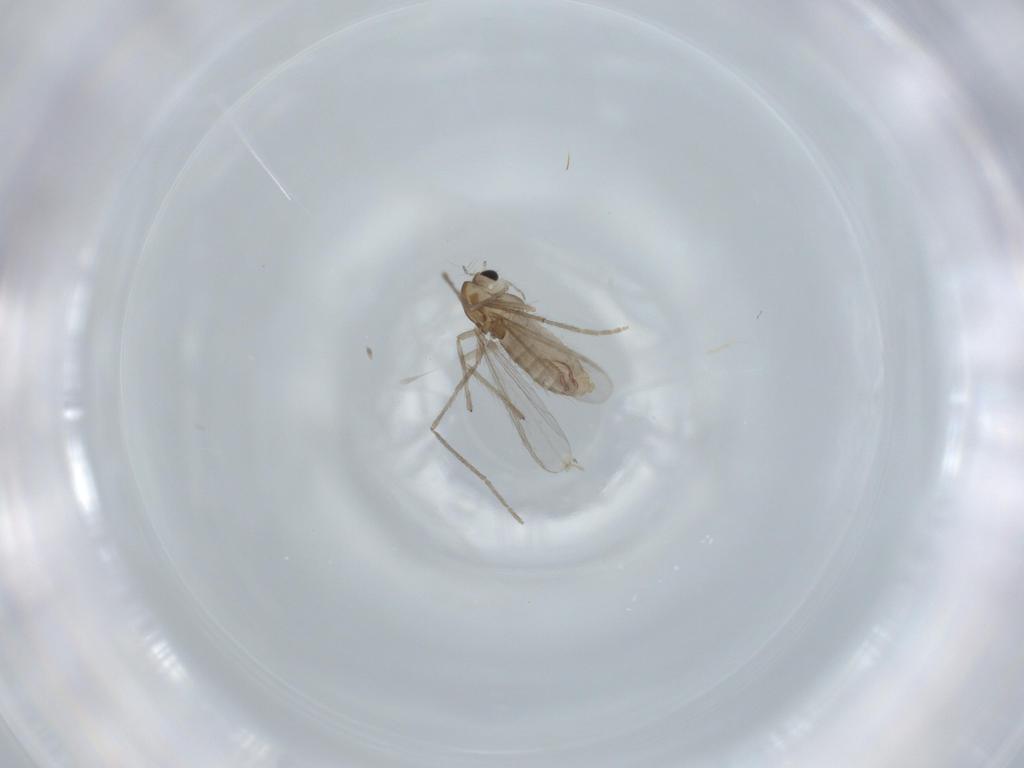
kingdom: Animalia
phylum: Arthropoda
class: Insecta
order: Diptera
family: Chironomidae
